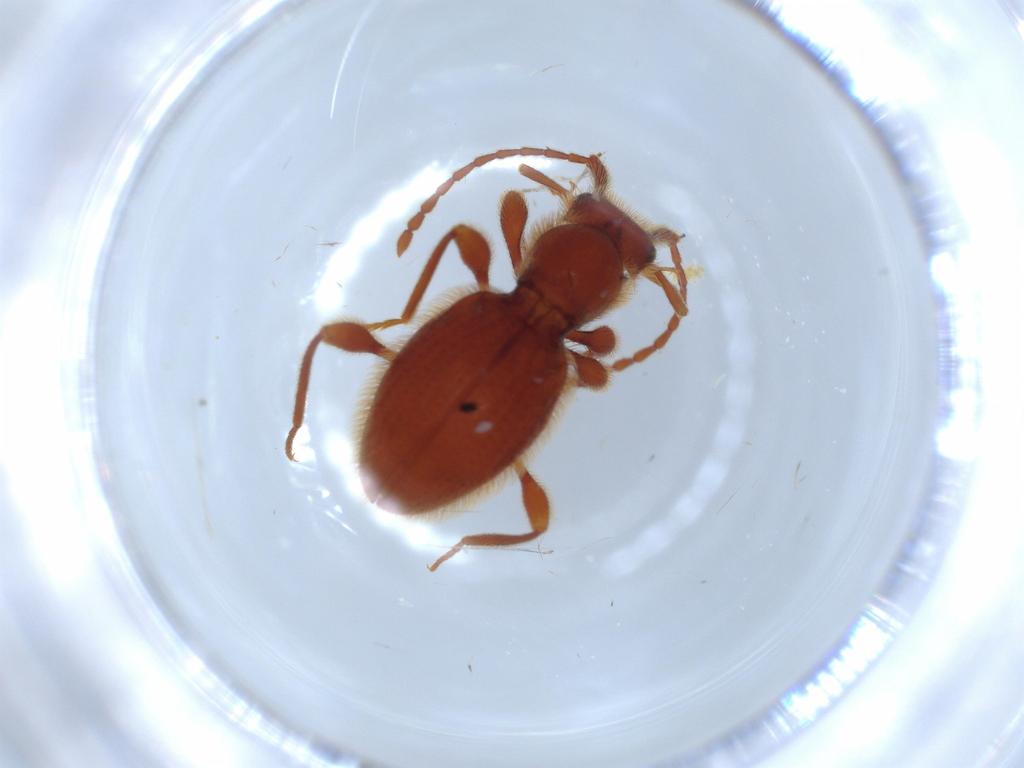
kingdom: Animalia
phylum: Arthropoda
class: Insecta
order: Coleoptera
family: Staphylinidae
